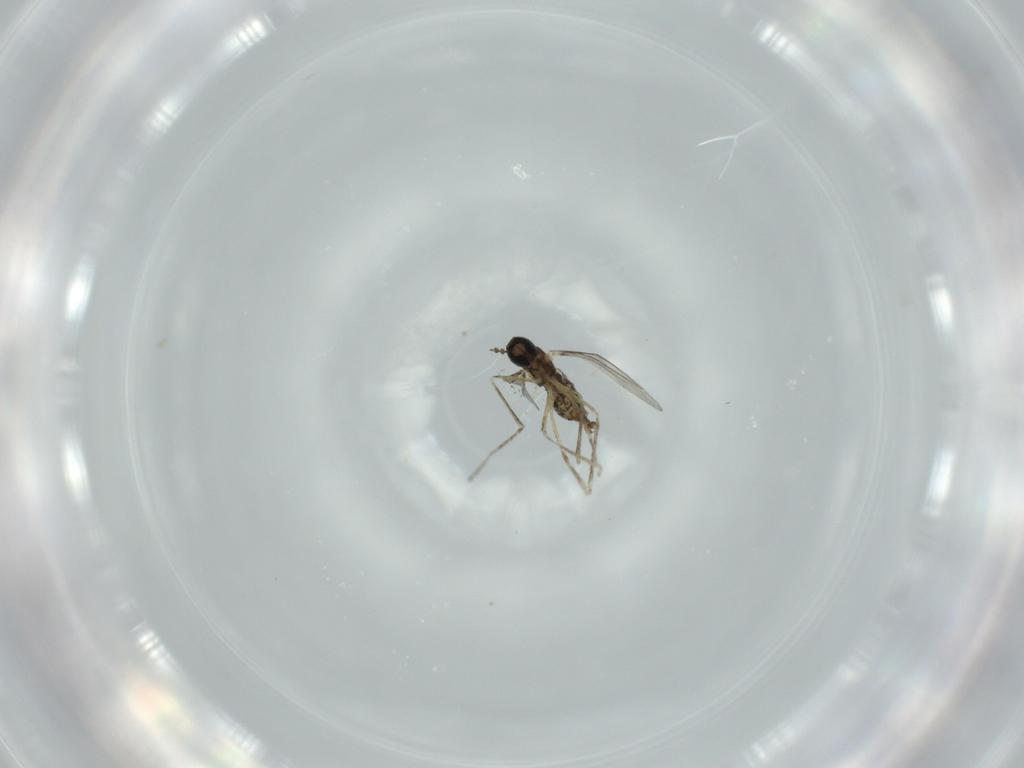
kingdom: Animalia
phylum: Arthropoda
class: Insecta
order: Diptera
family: Cecidomyiidae
